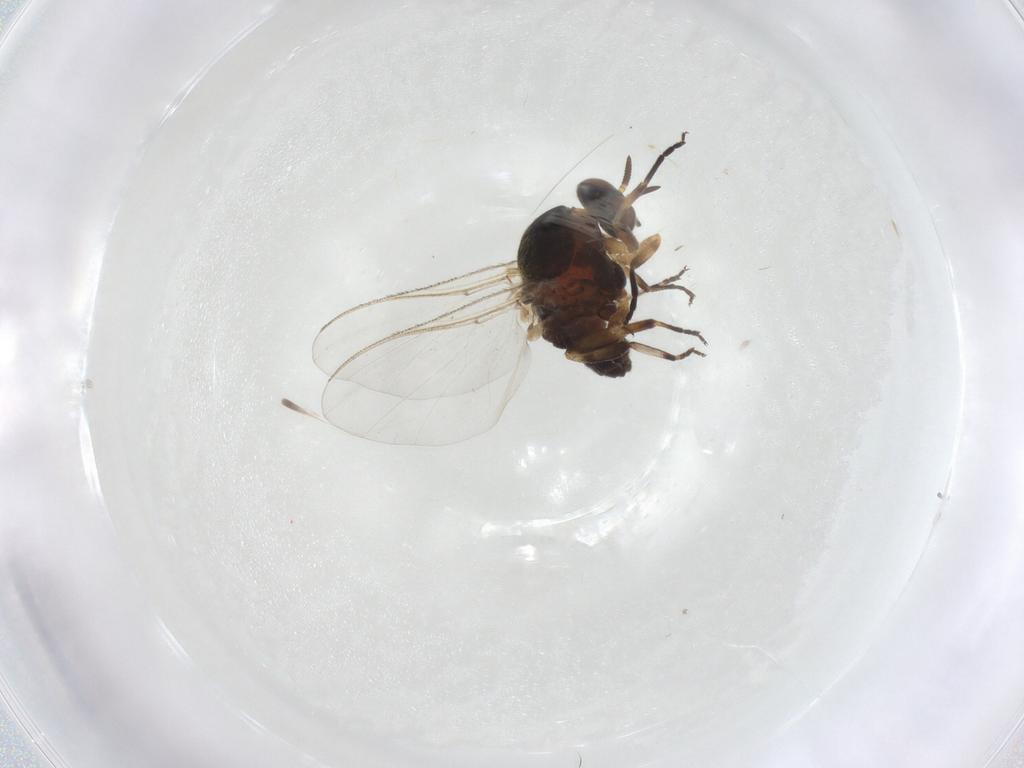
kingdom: Animalia
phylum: Arthropoda
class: Insecta
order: Diptera
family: Simuliidae
